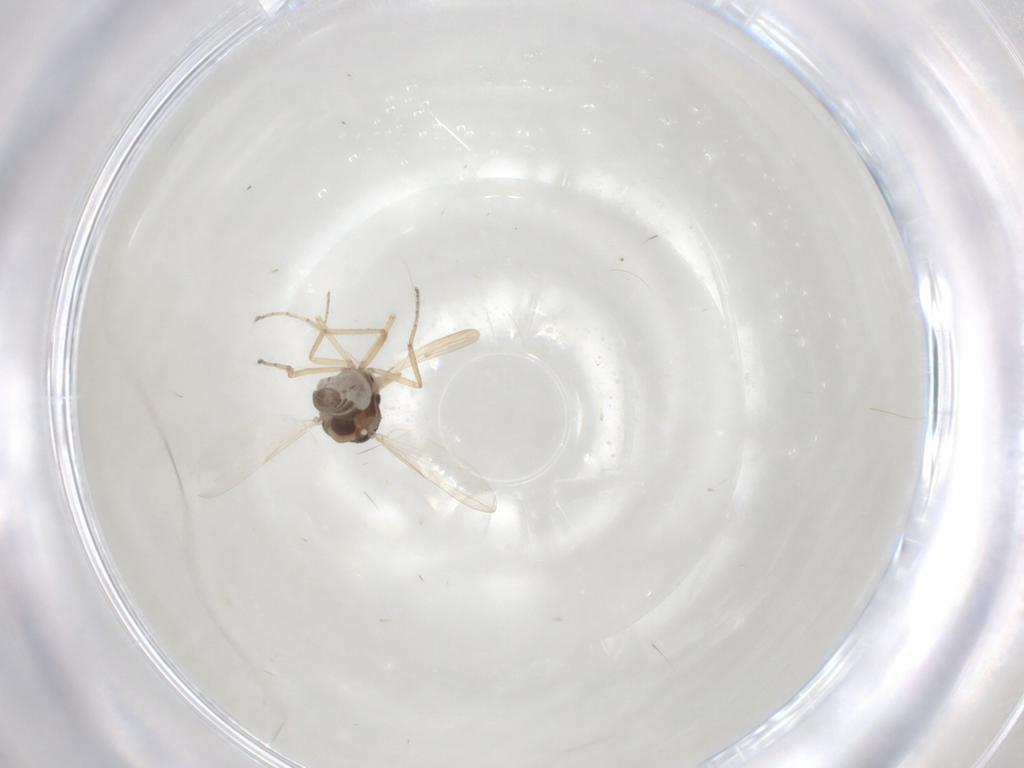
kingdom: Animalia
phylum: Arthropoda
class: Insecta
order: Diptera
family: Ceratopogonidae
